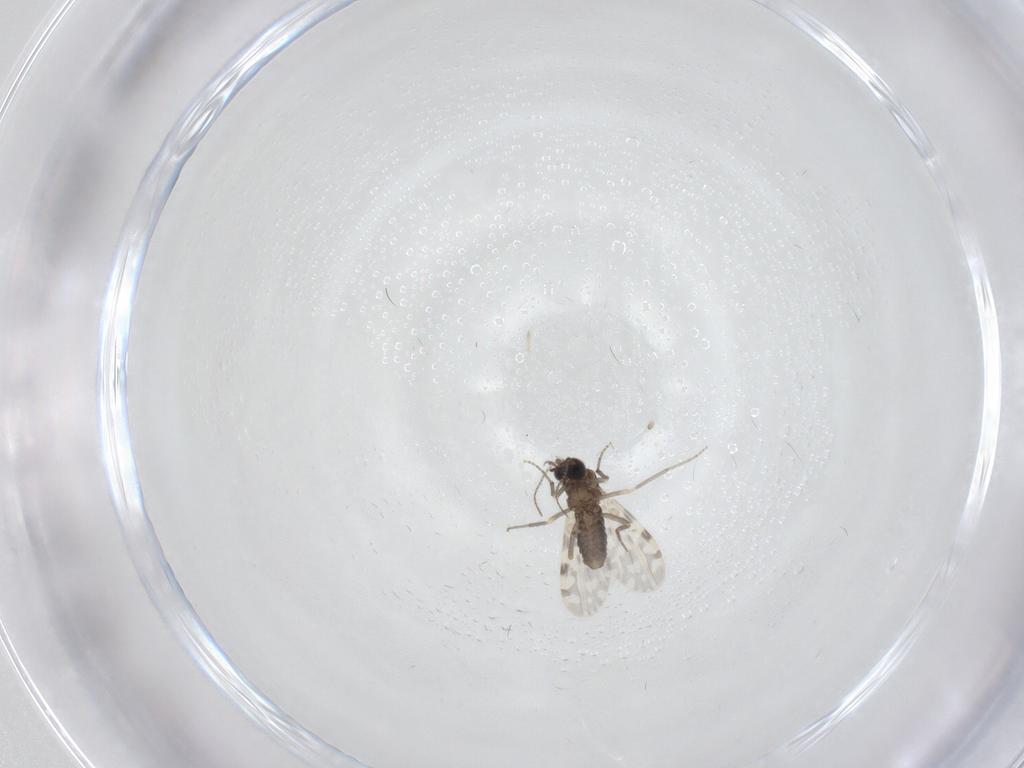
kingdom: Animalia
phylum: Arthropoda
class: Insecta
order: Diptera
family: Ceratopogonidae
